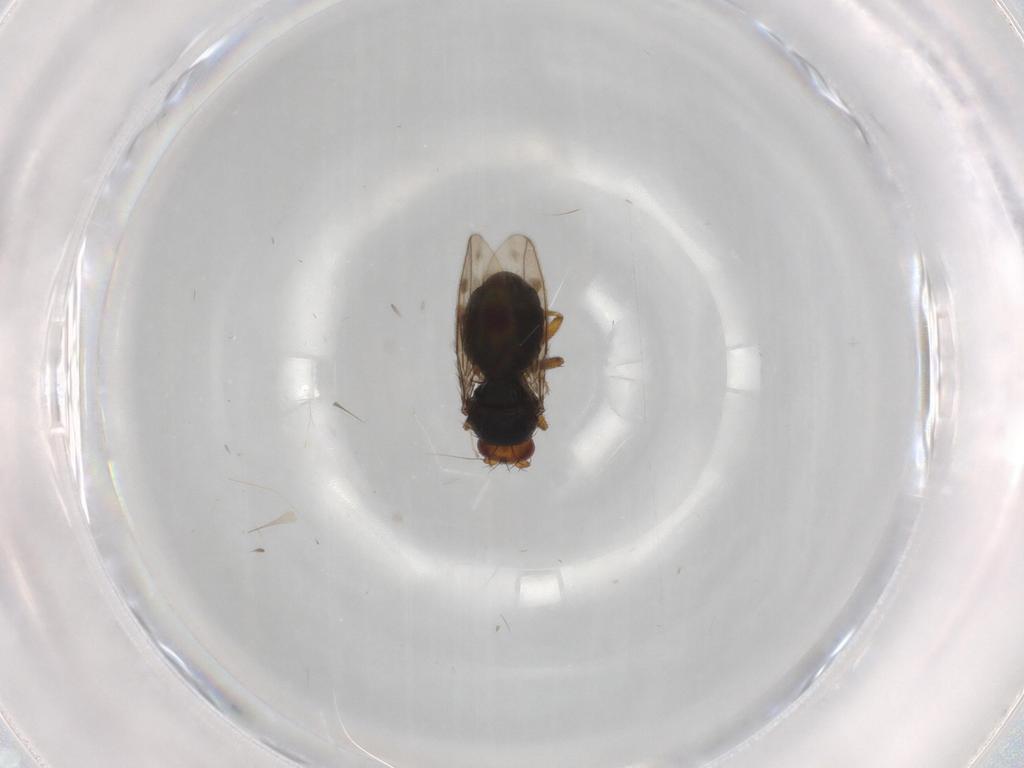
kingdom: Animalia
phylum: Arthropoda
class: Insecta
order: Diptera
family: Sphaeroceridae
